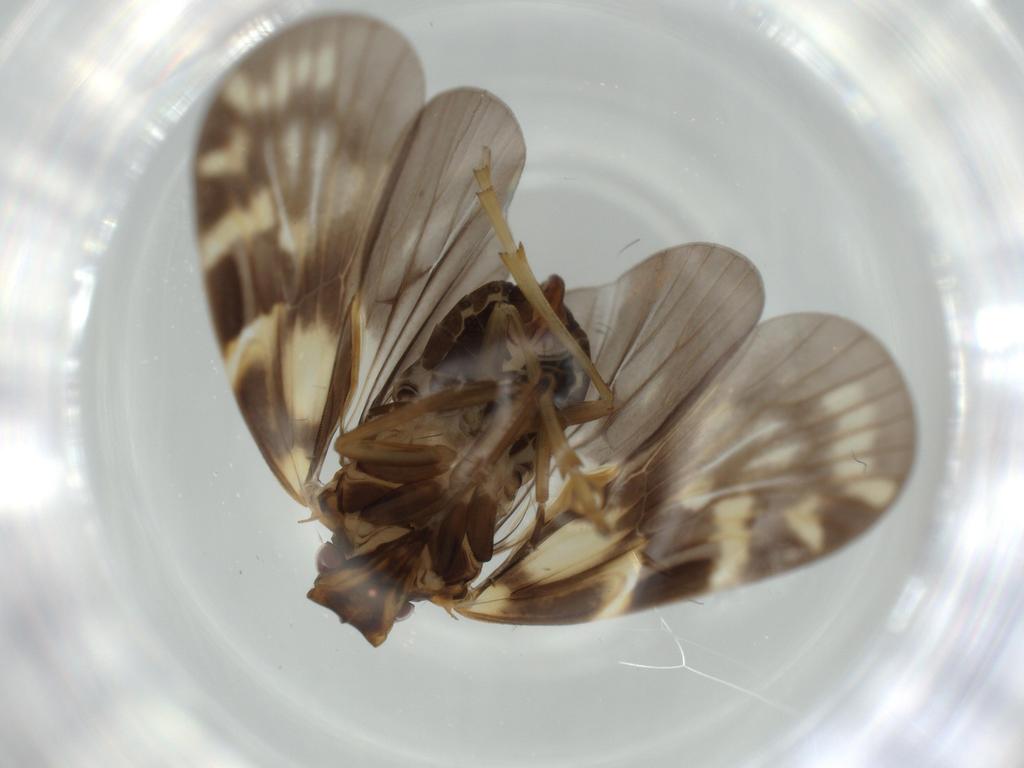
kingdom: Animalia
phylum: Arthropoda
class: Insecta
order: Hemiptera
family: Cixiidae
